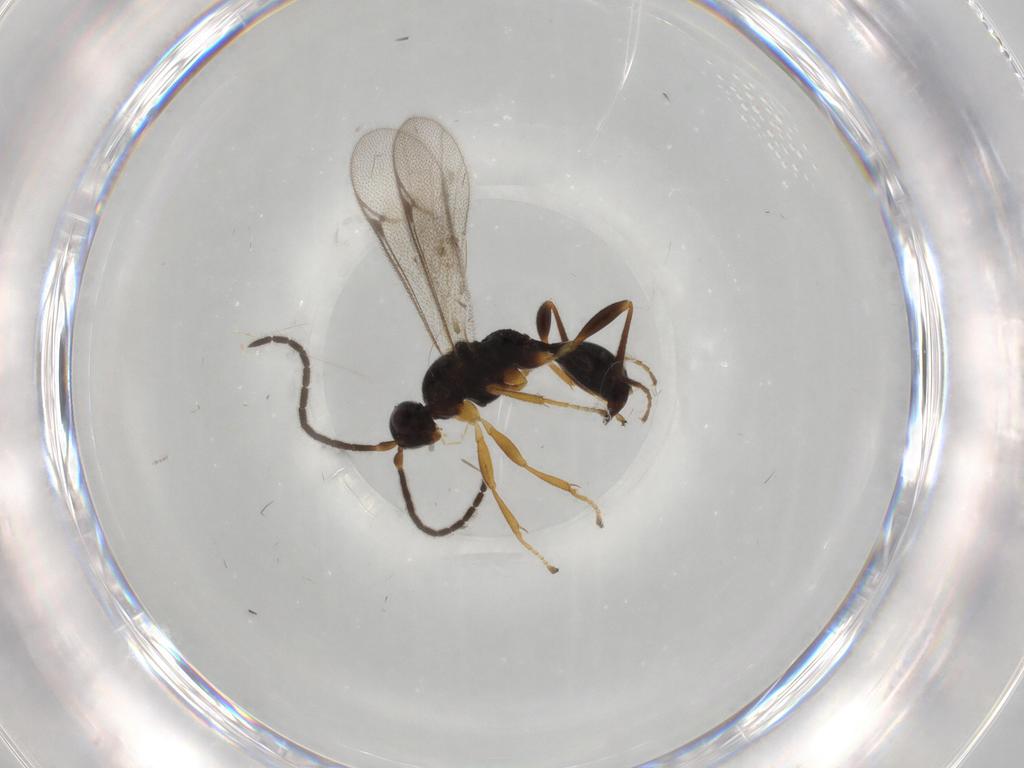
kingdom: Animalia
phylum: Arthropoda
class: Insecta
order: Hymenoptera
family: Proctotrupidae
